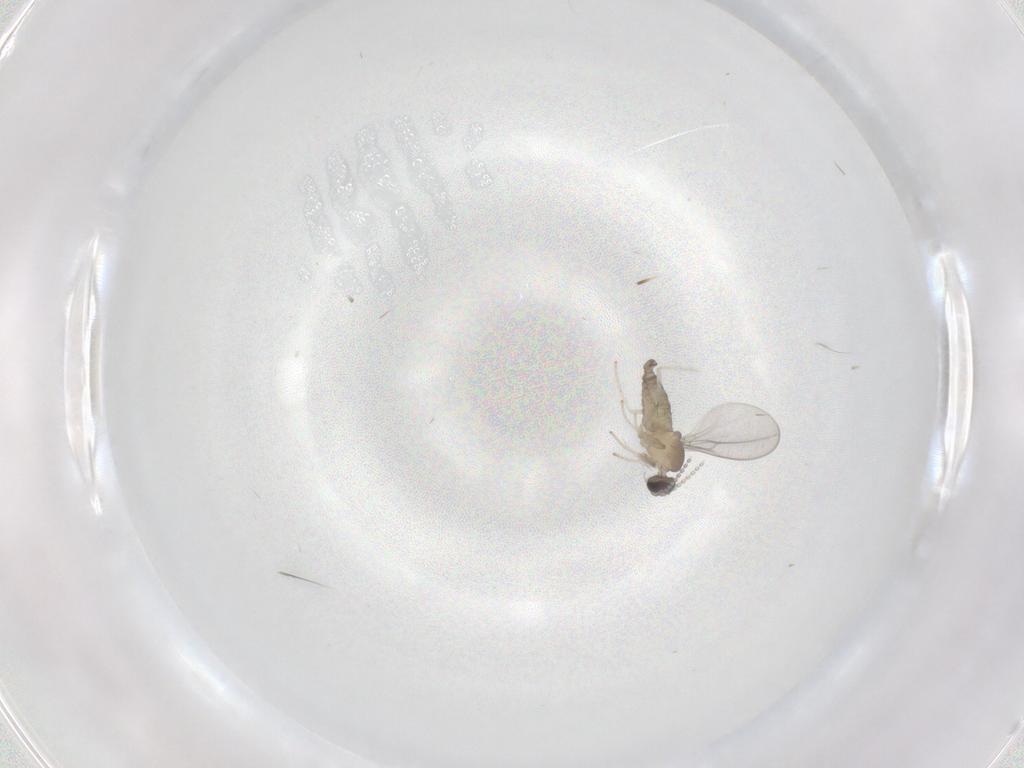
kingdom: Animalia
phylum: Arthropoda
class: Insecta
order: Diptera
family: Cecidomyiidae
